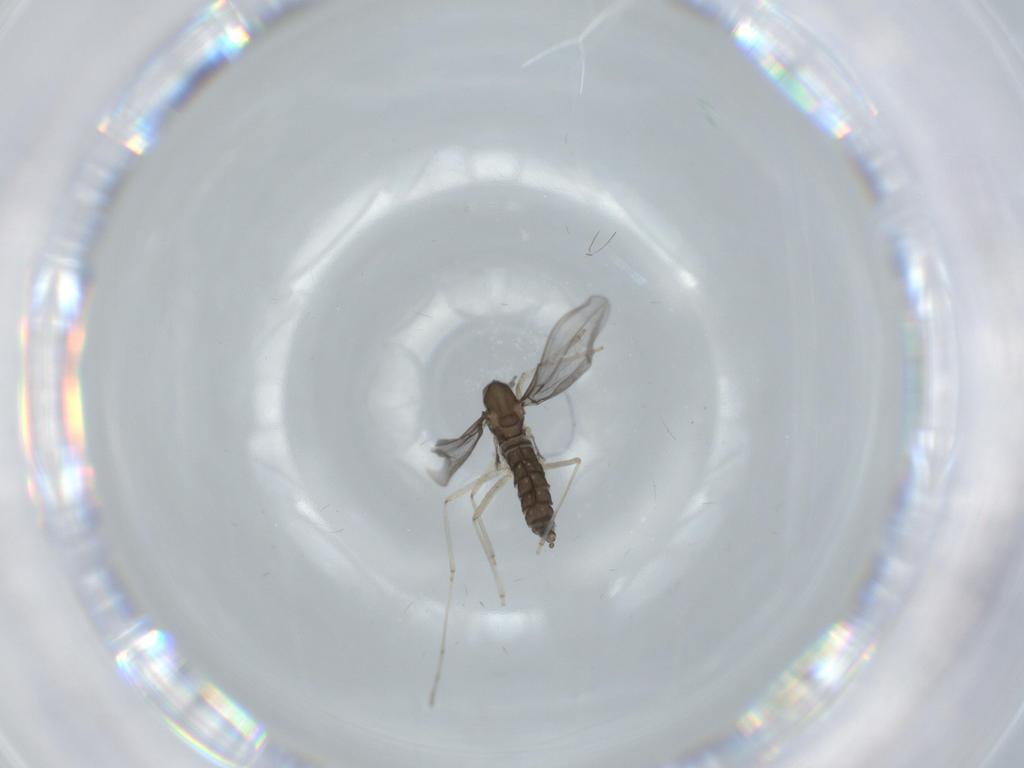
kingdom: Animalia
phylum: Arthropoda
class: Insecta
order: Diptera
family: Cecidomyiidae
